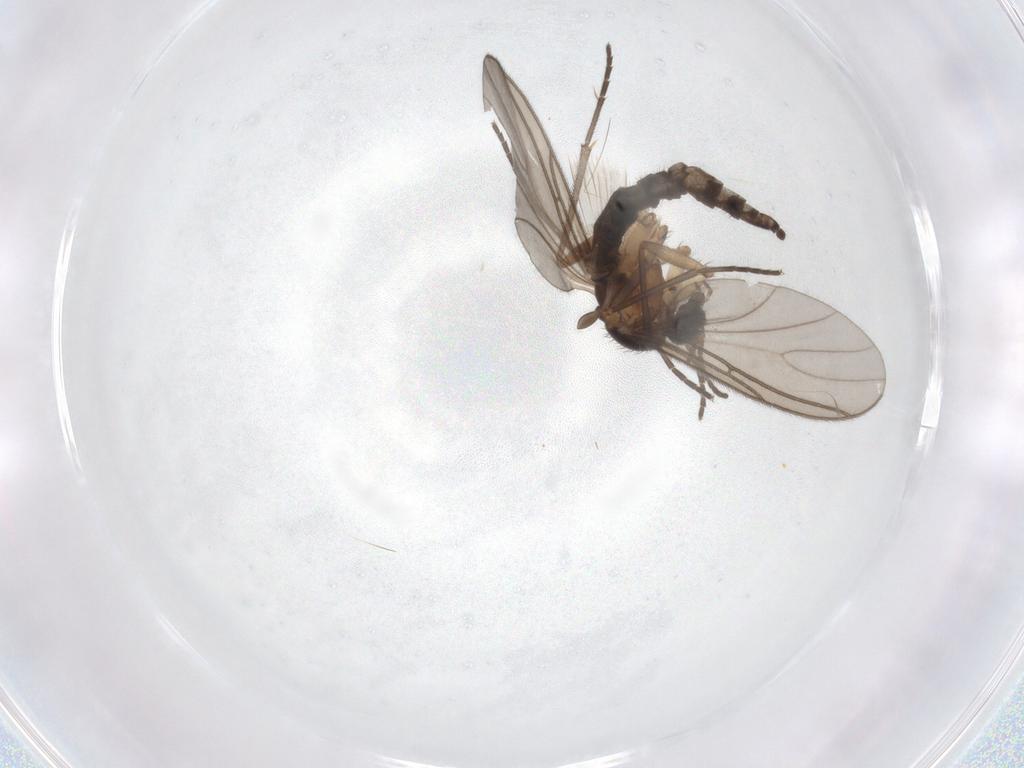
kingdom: Animalia
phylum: Arthropoda
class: Insecta
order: Diptera
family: Sciaridae
